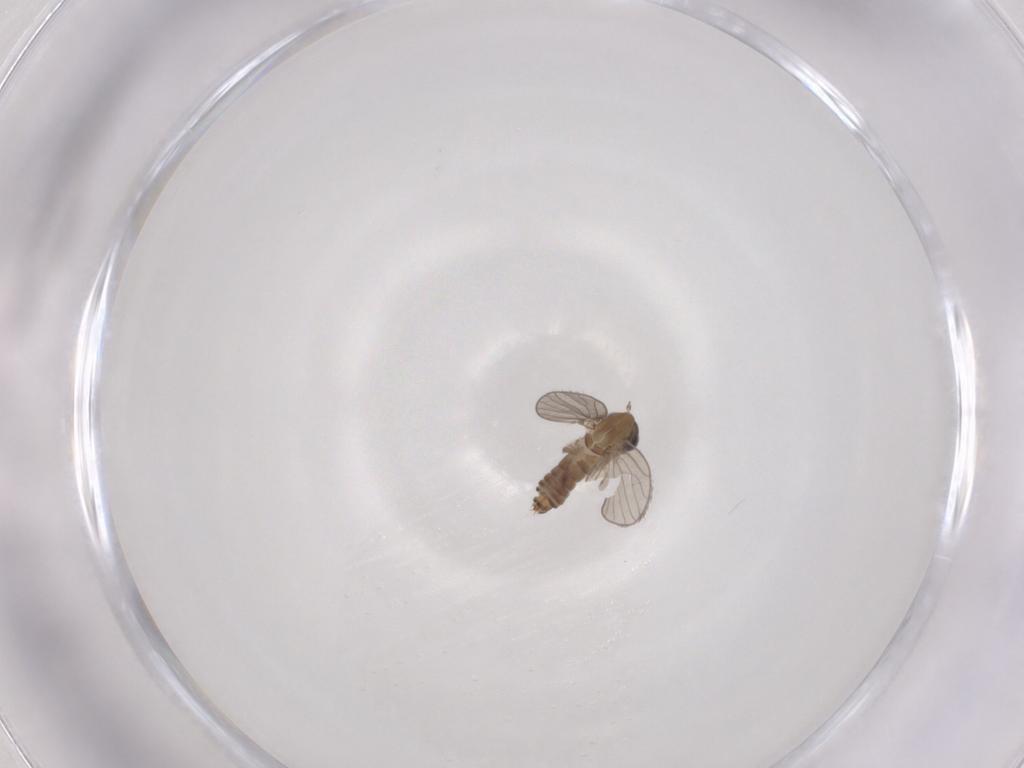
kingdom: Animalia
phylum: Arthropoda
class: Insecta
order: Diptera
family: Psychodidae
